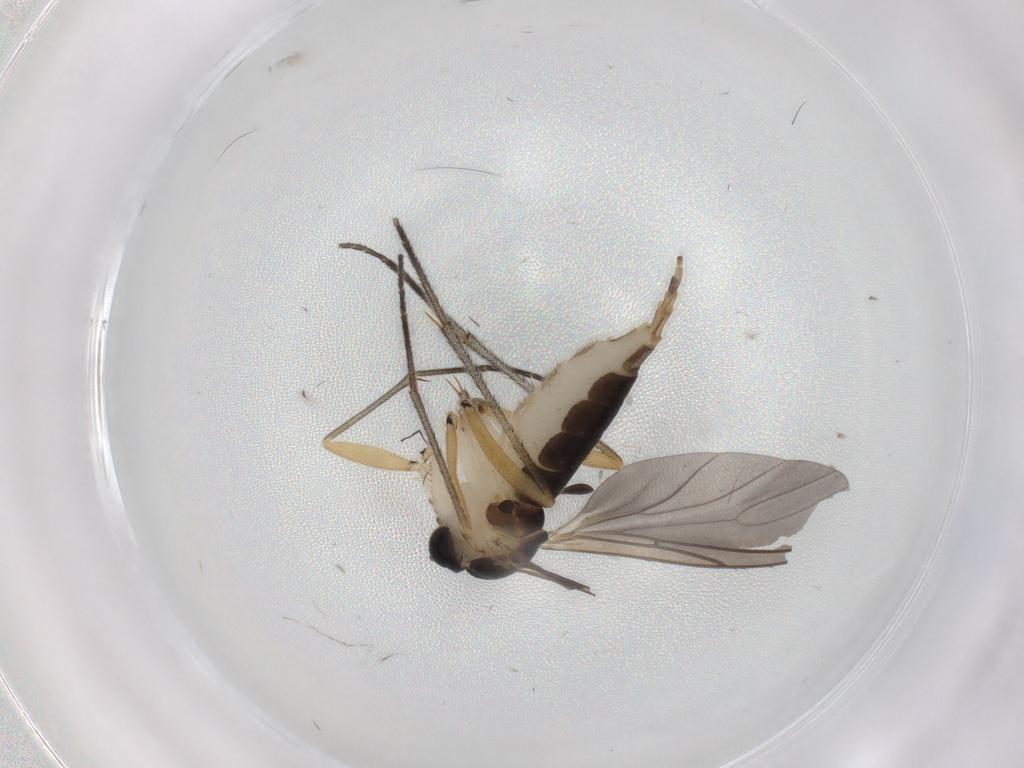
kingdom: Animalia
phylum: Arthropoda
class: Insecta
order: Diptera
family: Sciaridae
